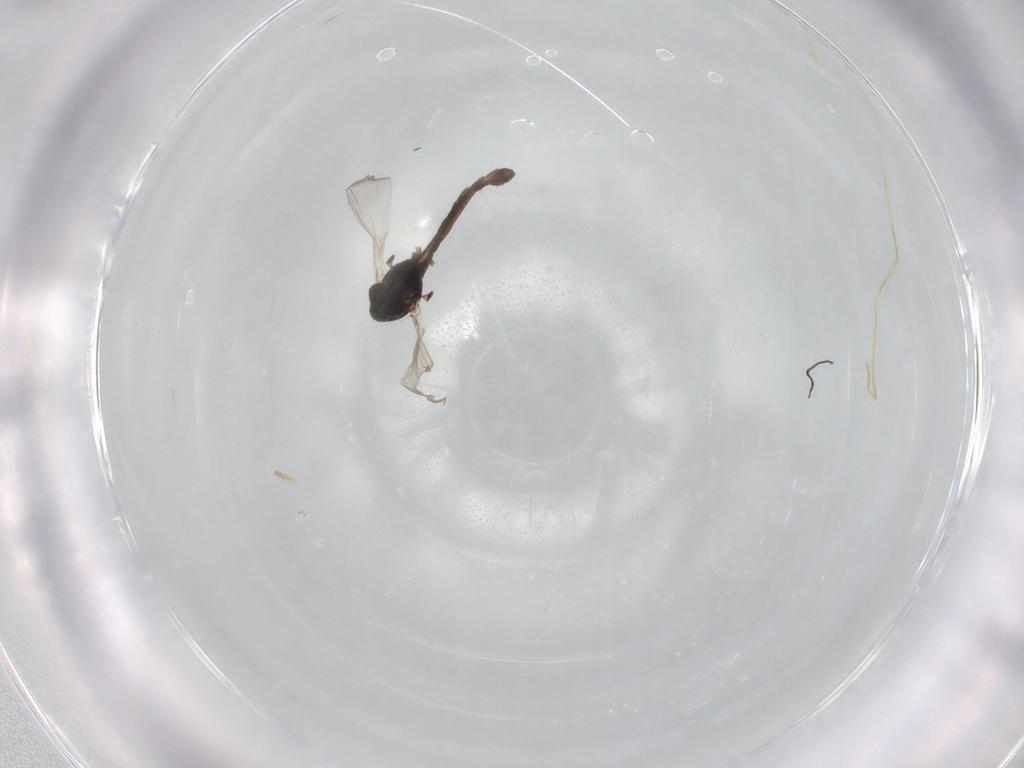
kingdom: Animalia
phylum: Arthropoda
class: Insecta
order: Diptera
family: Chironomidae
